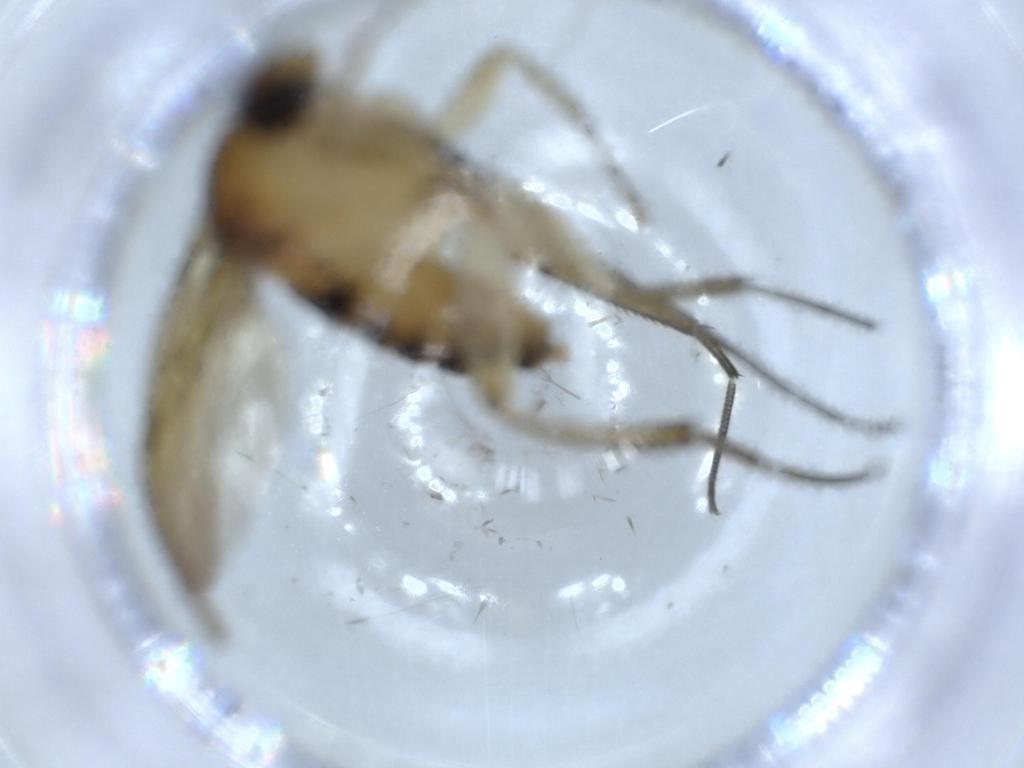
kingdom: Animalia
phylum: Arthropoda
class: Insecta
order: Diptera
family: Phoridae
